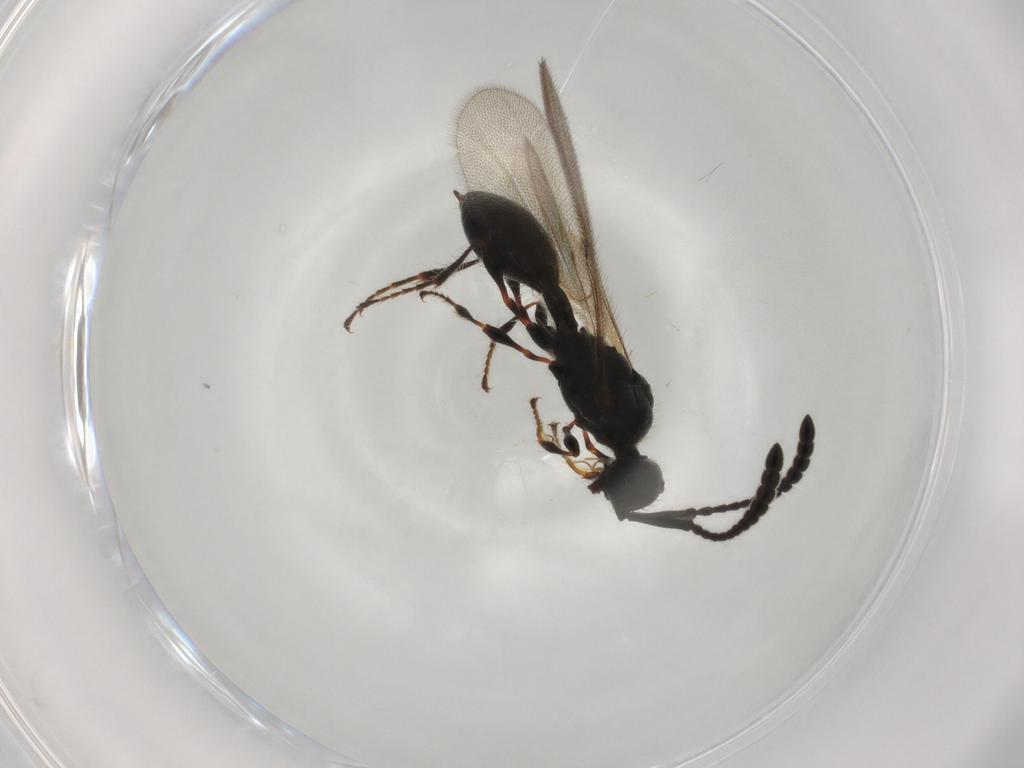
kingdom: Animalia
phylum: Arthropoda
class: Insecta
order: Hymenoptera
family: Diapriidae
